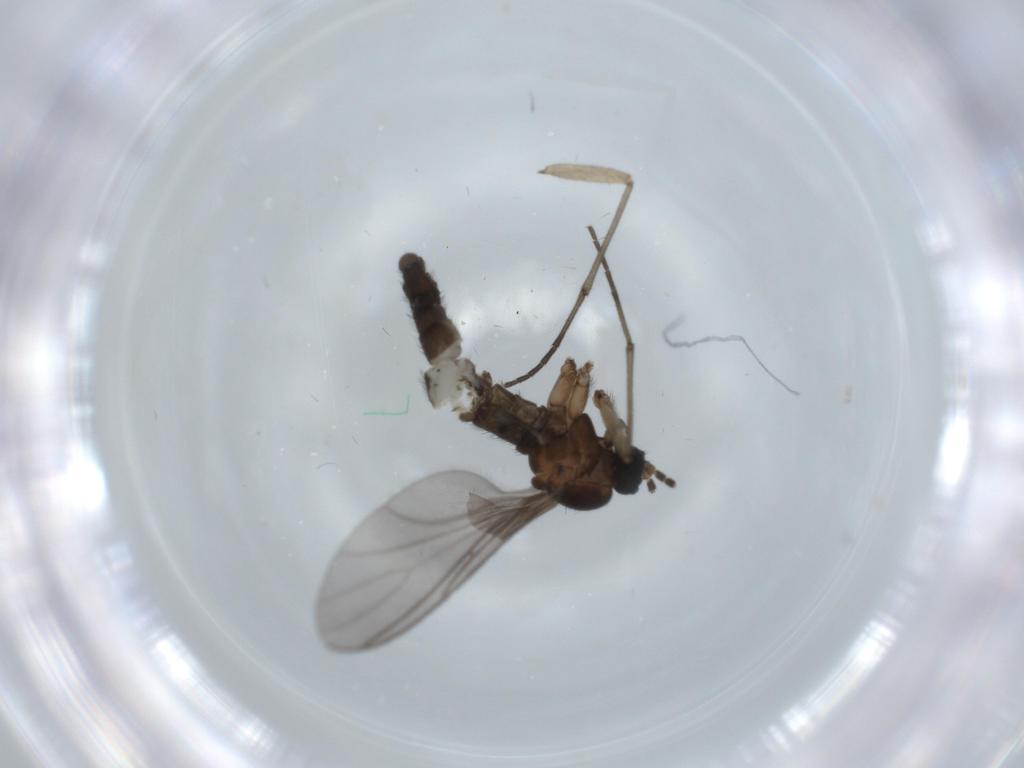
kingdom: Animalia
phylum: Arthropoda
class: Insecta
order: Diptera
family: Sciaridae
